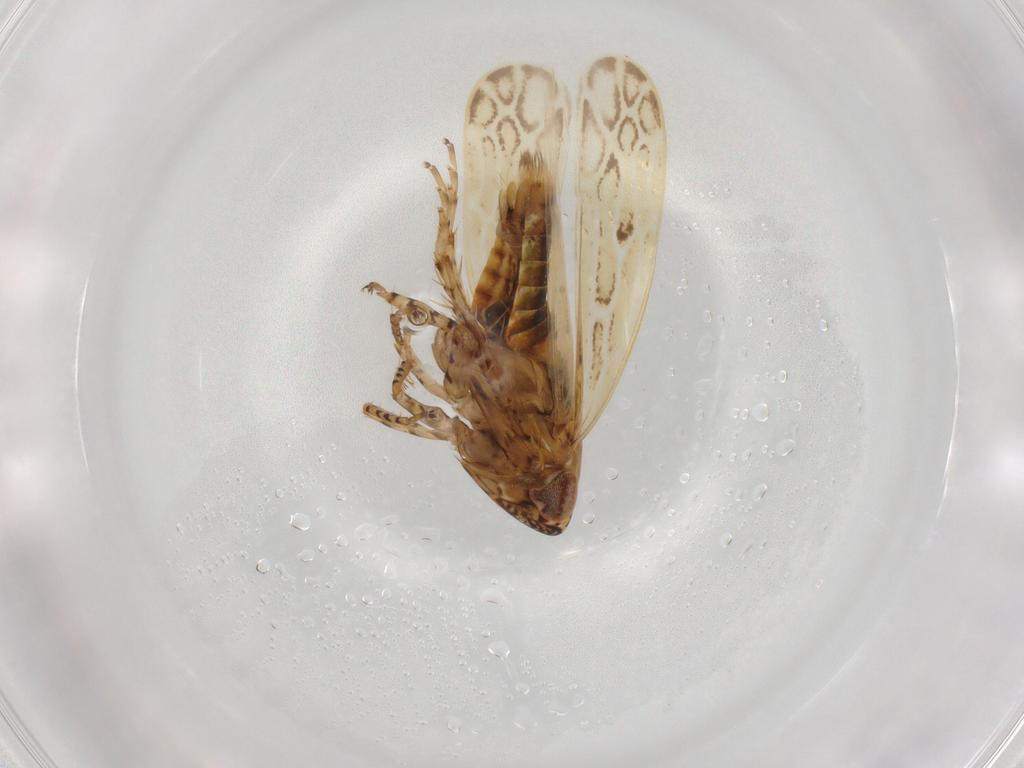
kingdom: Animalia
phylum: Arthropoda
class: Insecta
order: Hemiptera
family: Cicadellidae
